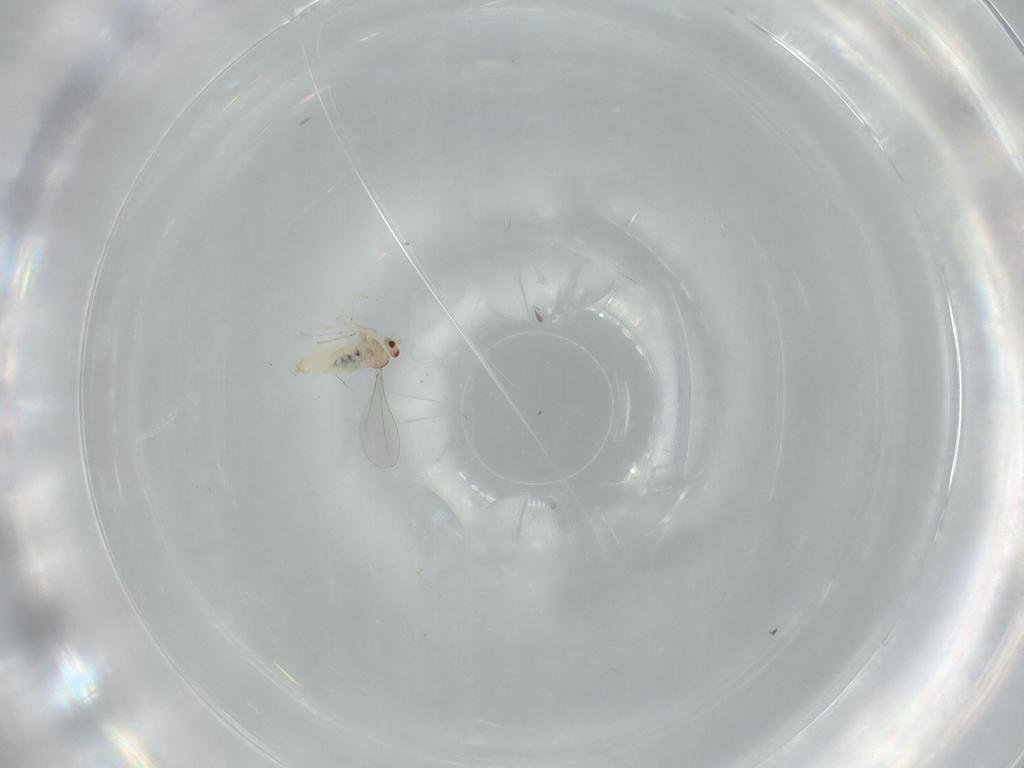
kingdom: Animalia
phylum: Arthropoda
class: Insecta
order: Diptera
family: Cecidomyiidae
